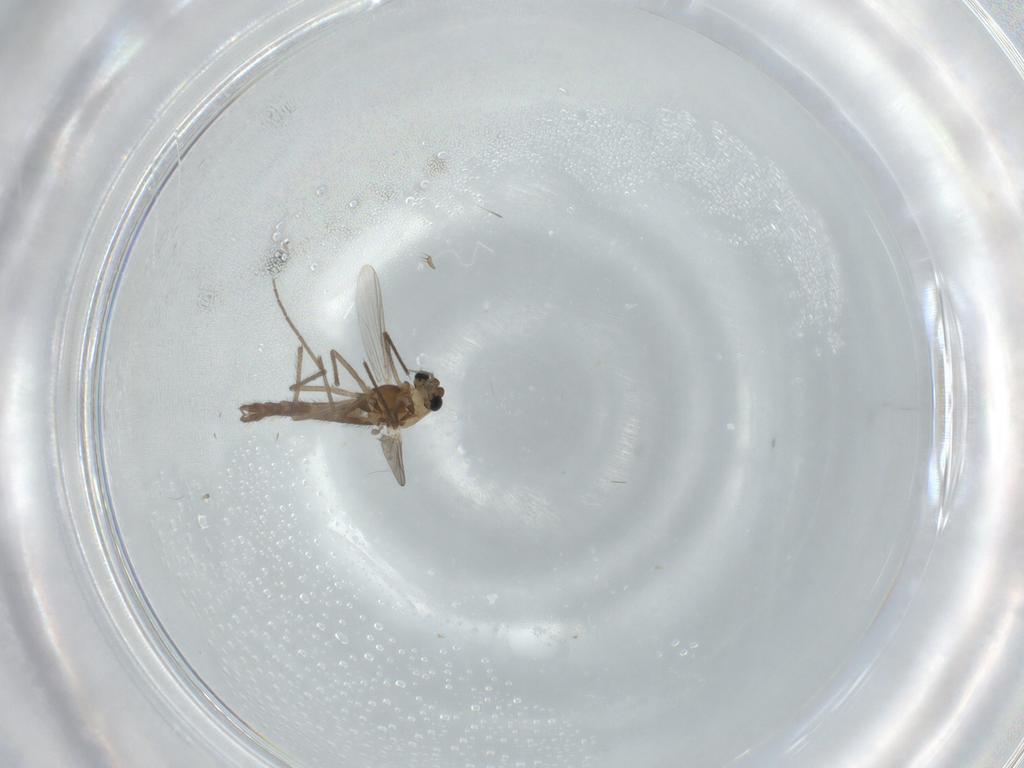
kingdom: Animalia
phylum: Arthropoda
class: Insecta
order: Diptera
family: Chironomidae
